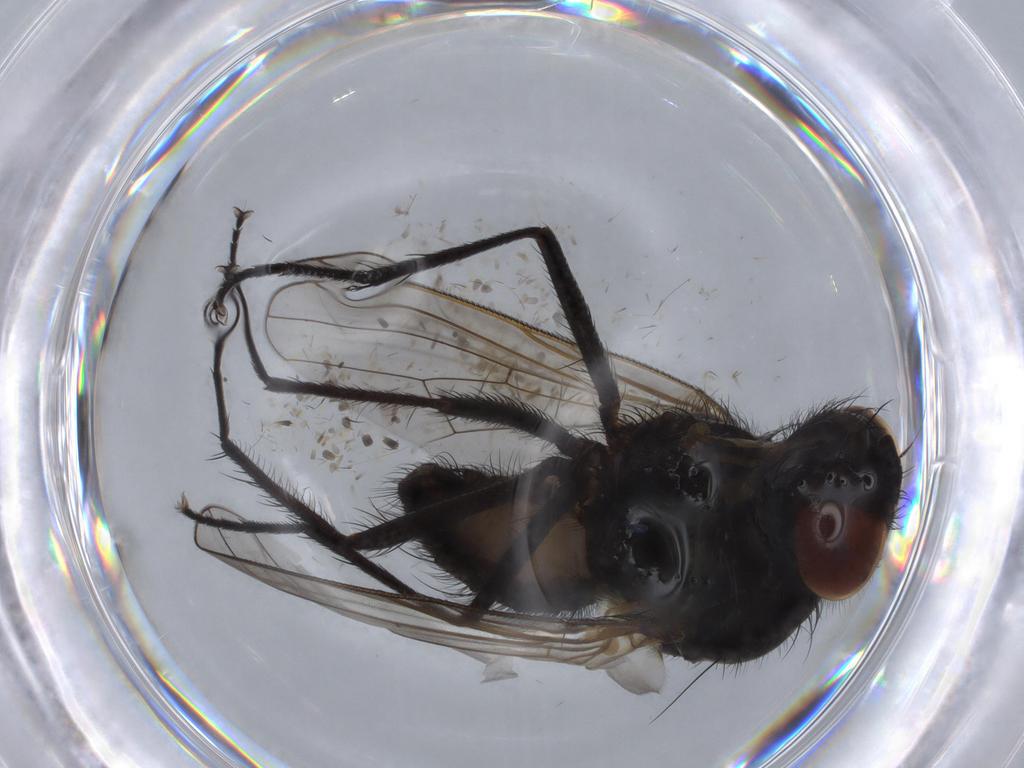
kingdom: Animalia
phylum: Arthropoda
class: Insecta
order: Diptera
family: Anthomyiidae
